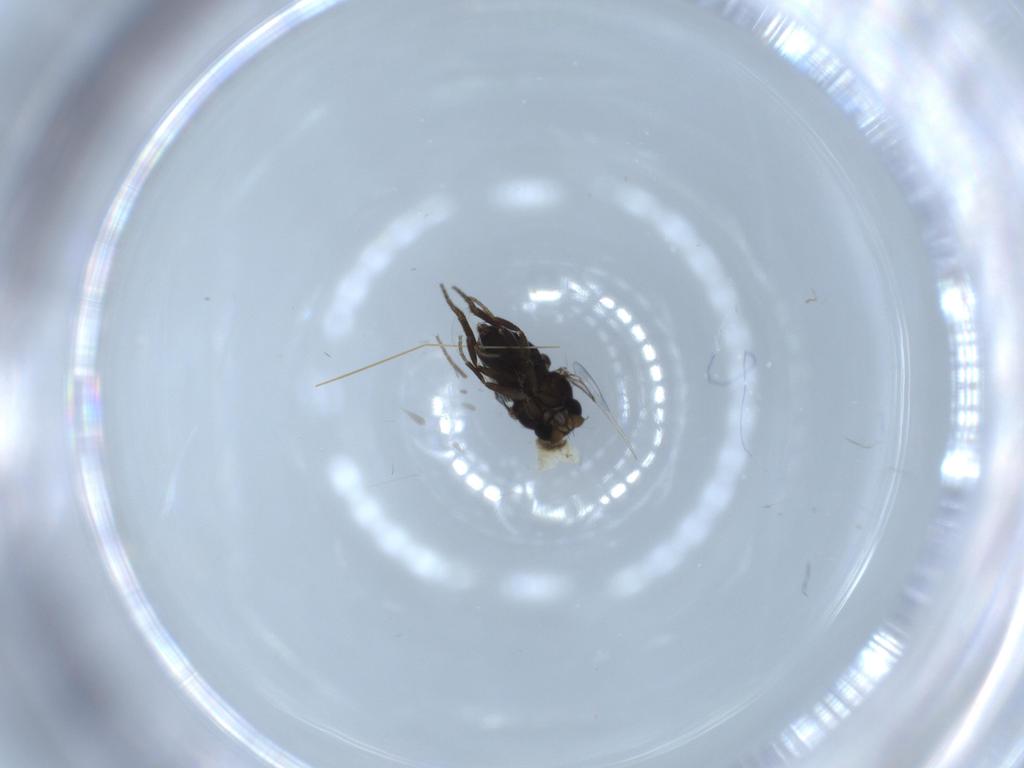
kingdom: Animalia
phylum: Arthropoda
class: Insecta
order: Diptera
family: Phoridae
